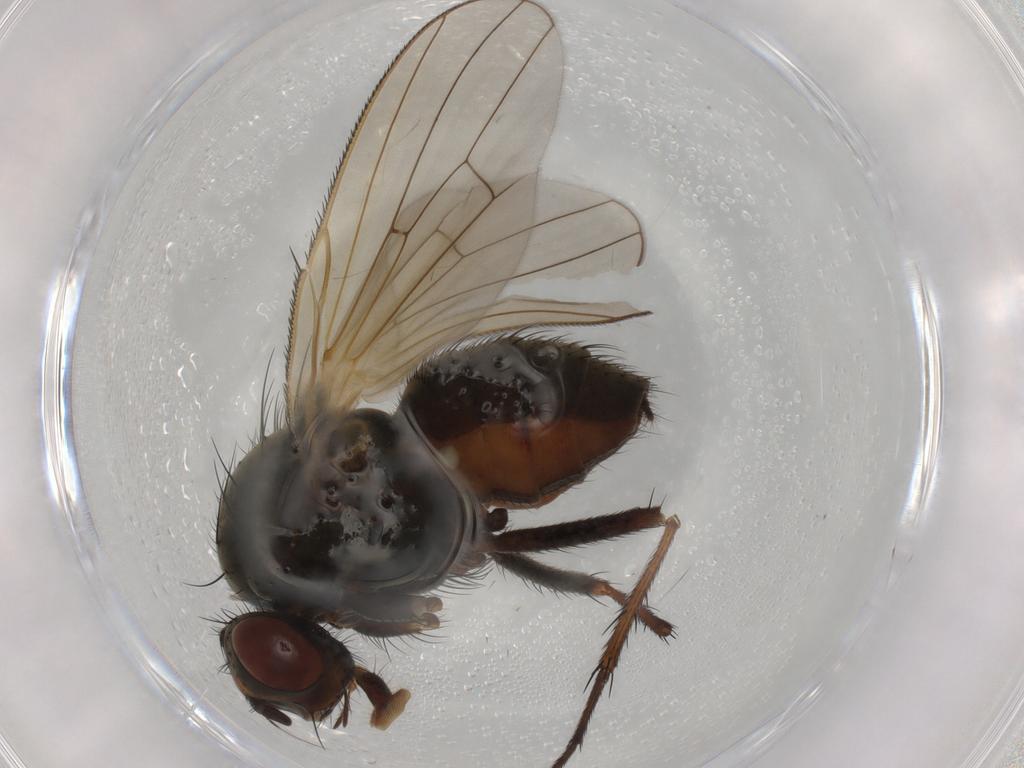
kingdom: Animalia
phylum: Arthropoda
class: Insecta
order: Diptera
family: Anthomyiidae
